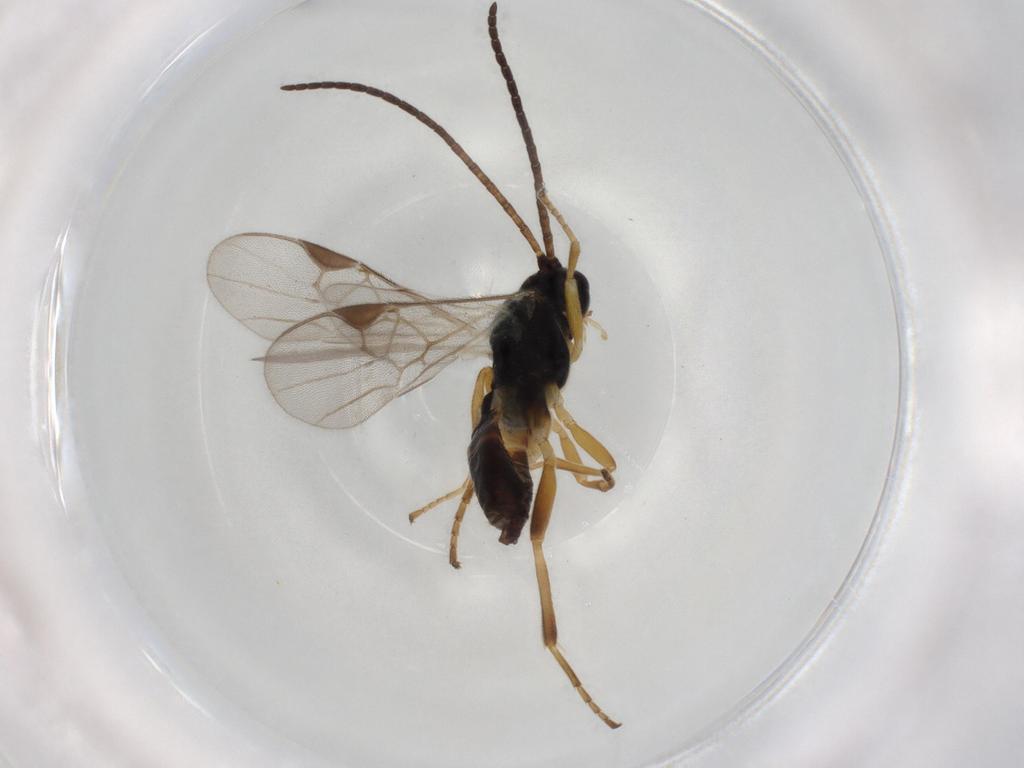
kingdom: Animalia
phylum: Arthropoda
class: Insecta
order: Hymenoptera
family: Braconidae
